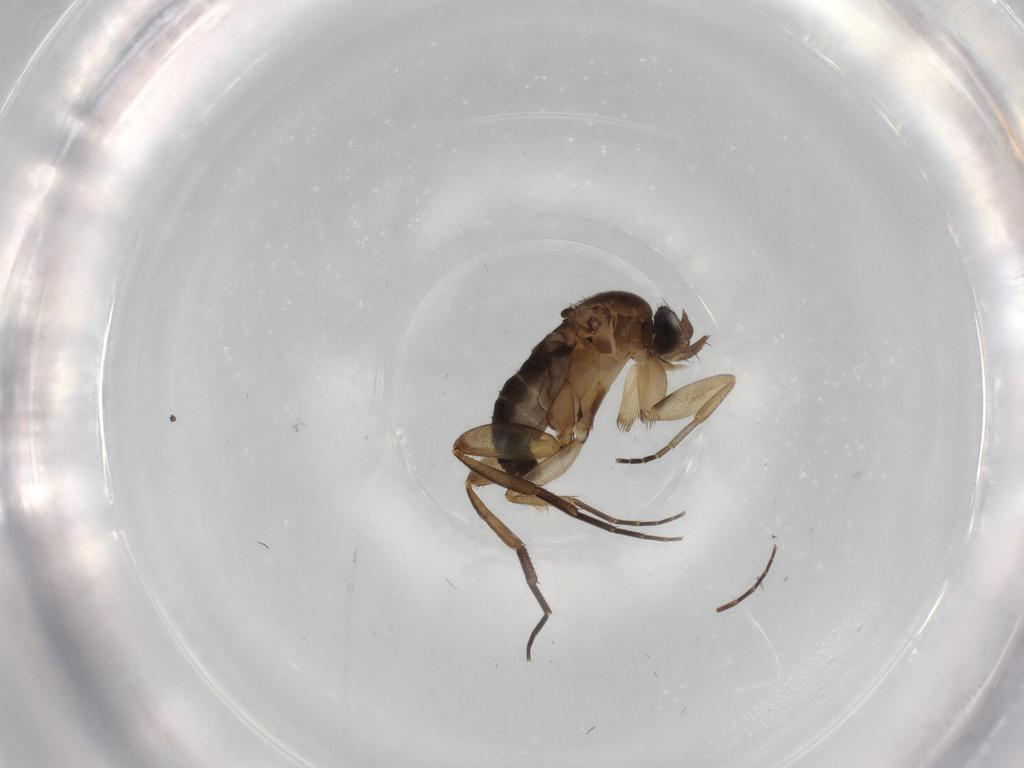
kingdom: Animalia
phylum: Arthropoda
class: Insecta
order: Diptera
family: Phoridae
